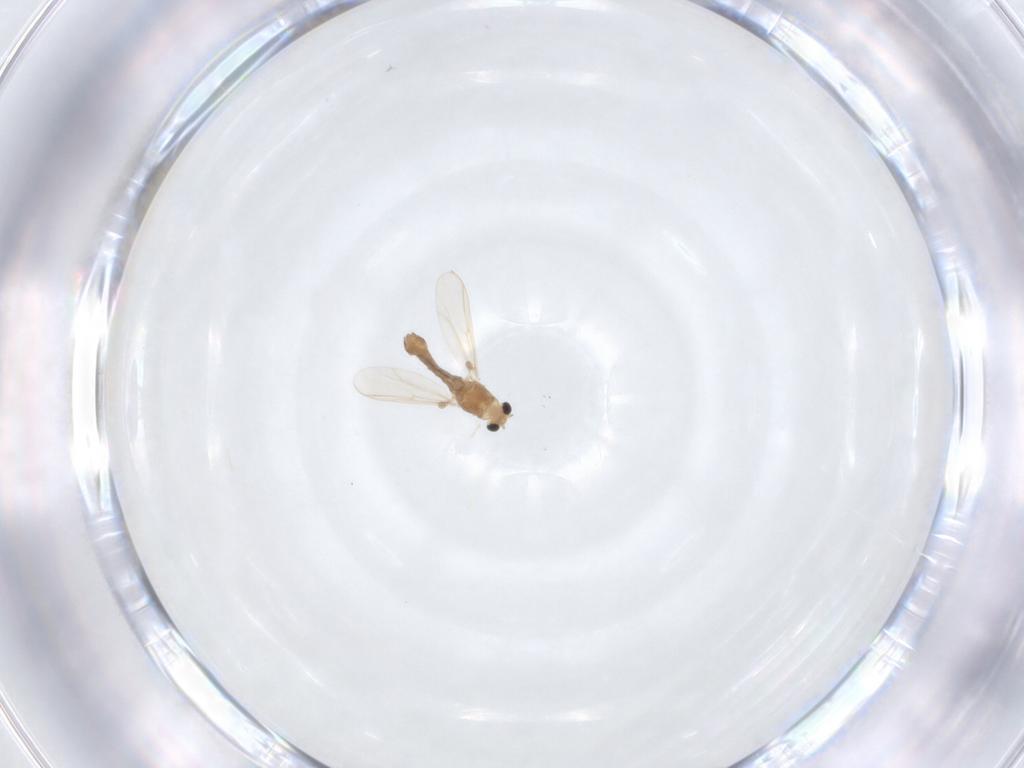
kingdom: Animalia
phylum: Arthropoda
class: Insecta
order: Diptera
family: Chironomidae
